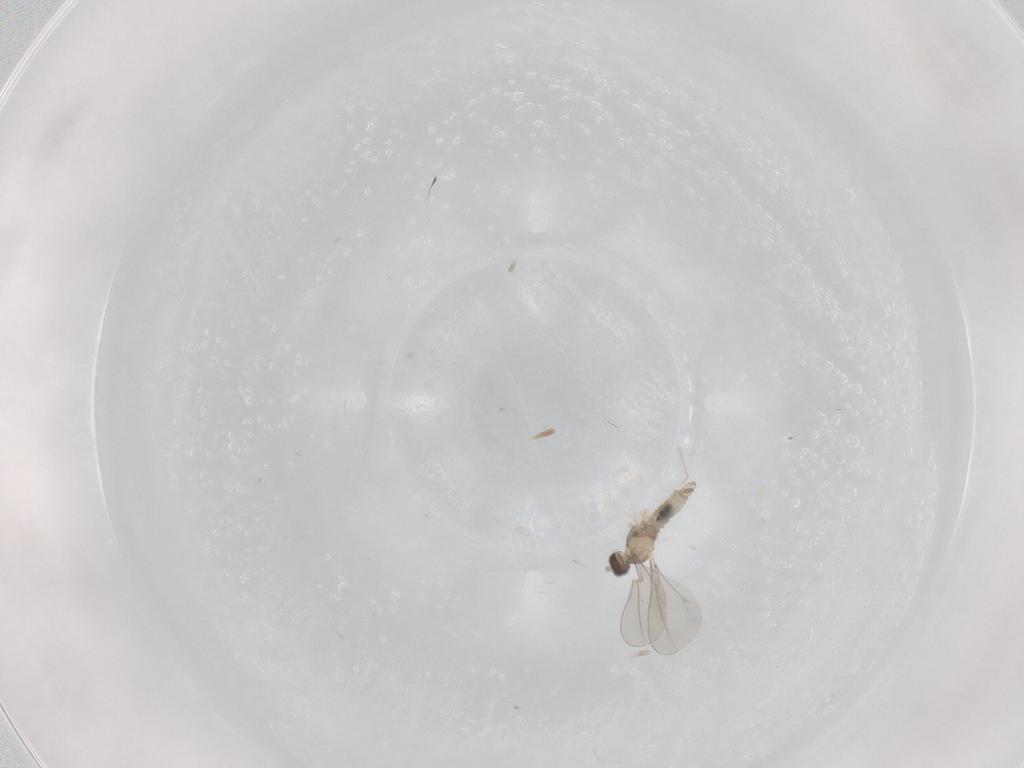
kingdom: Animalia
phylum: Arthropoda
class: Insecta
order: Diptera
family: Cecidomyiidae
